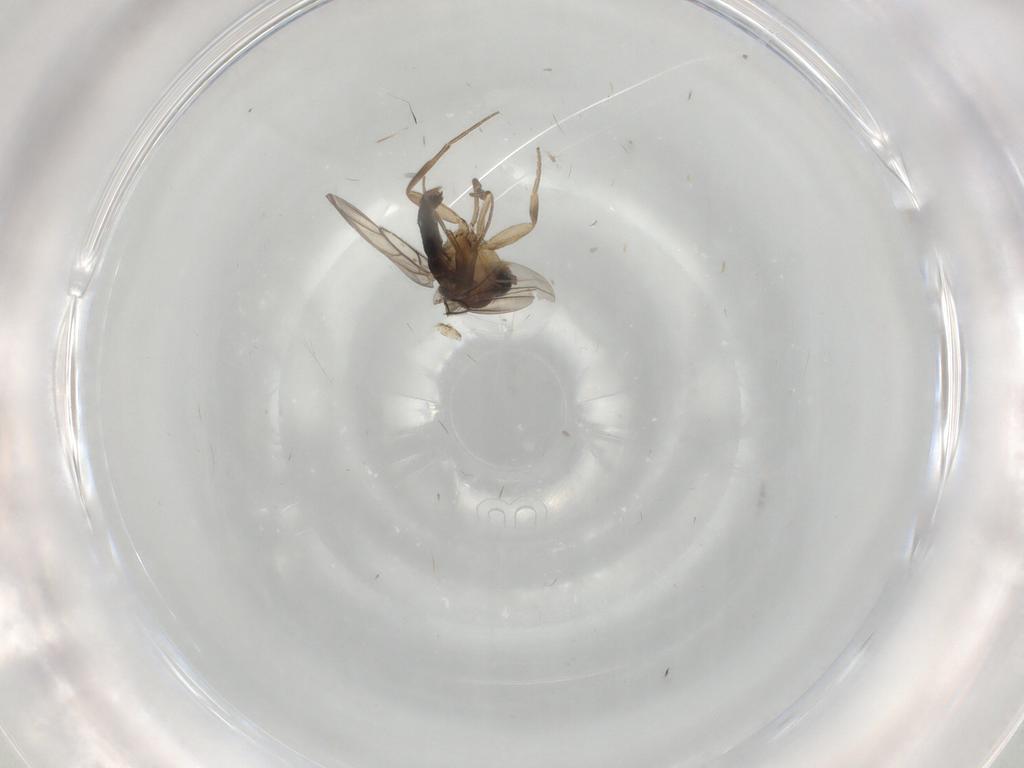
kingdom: Animalia
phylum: Arthropoda
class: Insecta
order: Diptera
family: Phoridae
